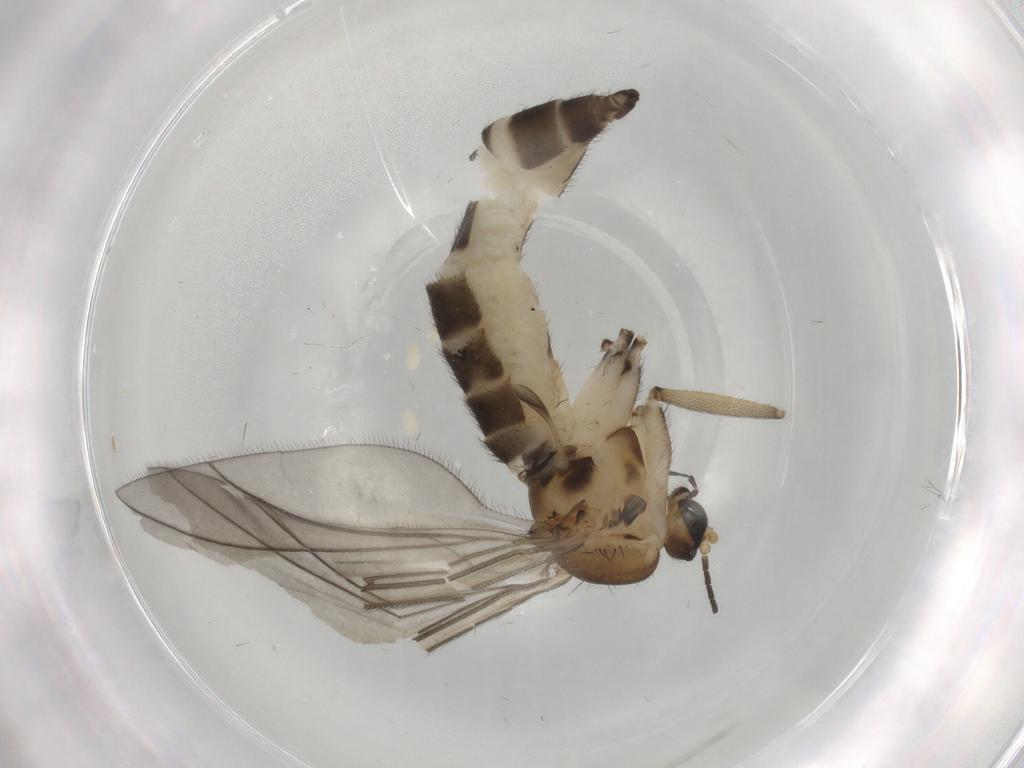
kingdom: Animalia
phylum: Arthropoda
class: Insecta
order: Diptera
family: Sciaridae
